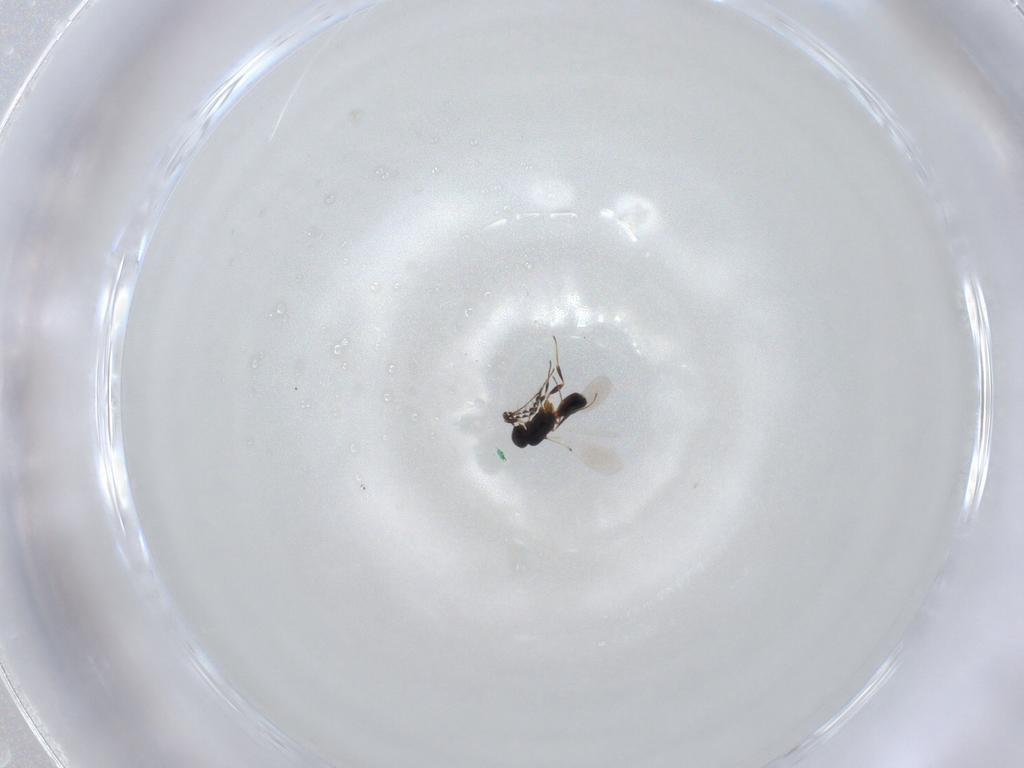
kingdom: Animalia
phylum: Arthropoda
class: Insecta
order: Hymenoptera
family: Platygastridae
